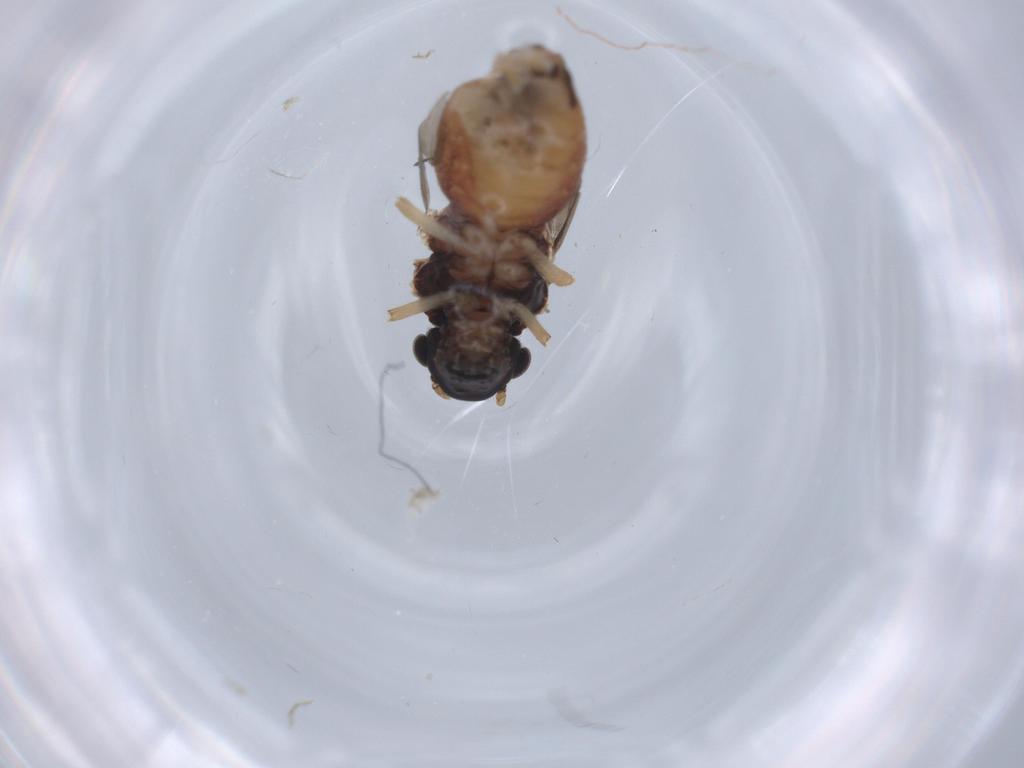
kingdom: Animalia
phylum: Arthropoda
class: Insecta
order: Psocodea
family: Caeciliusidae
